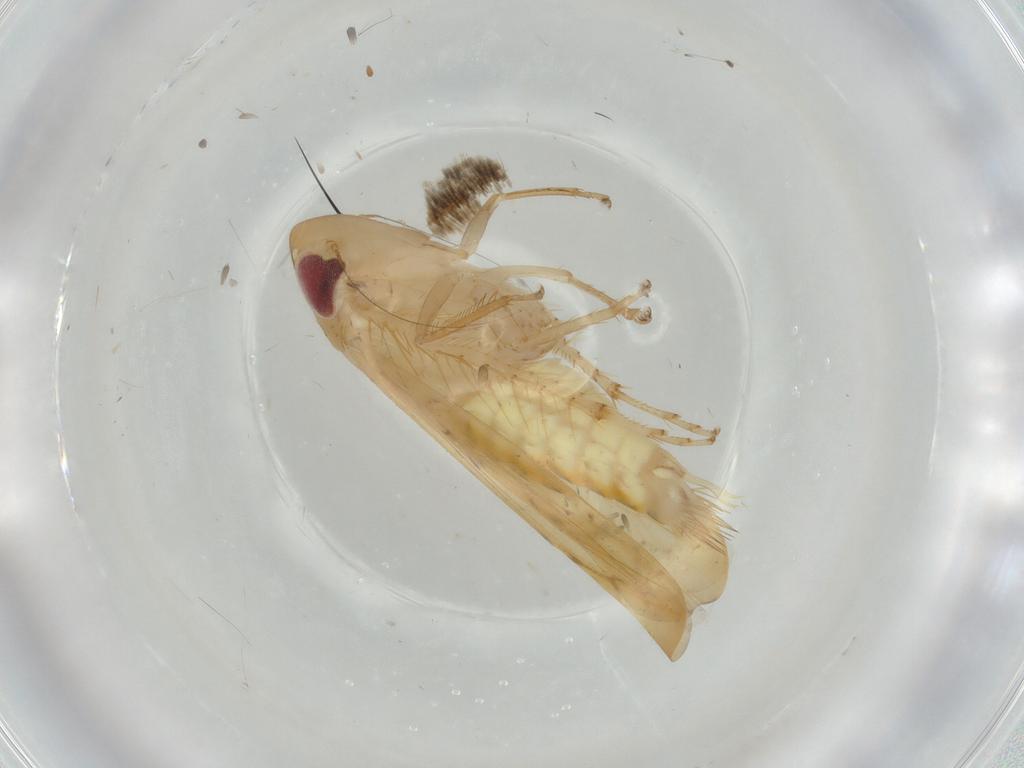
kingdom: Animalia
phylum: Arthropoda
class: Insecta
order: Hemiptera
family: Cicadellidae
